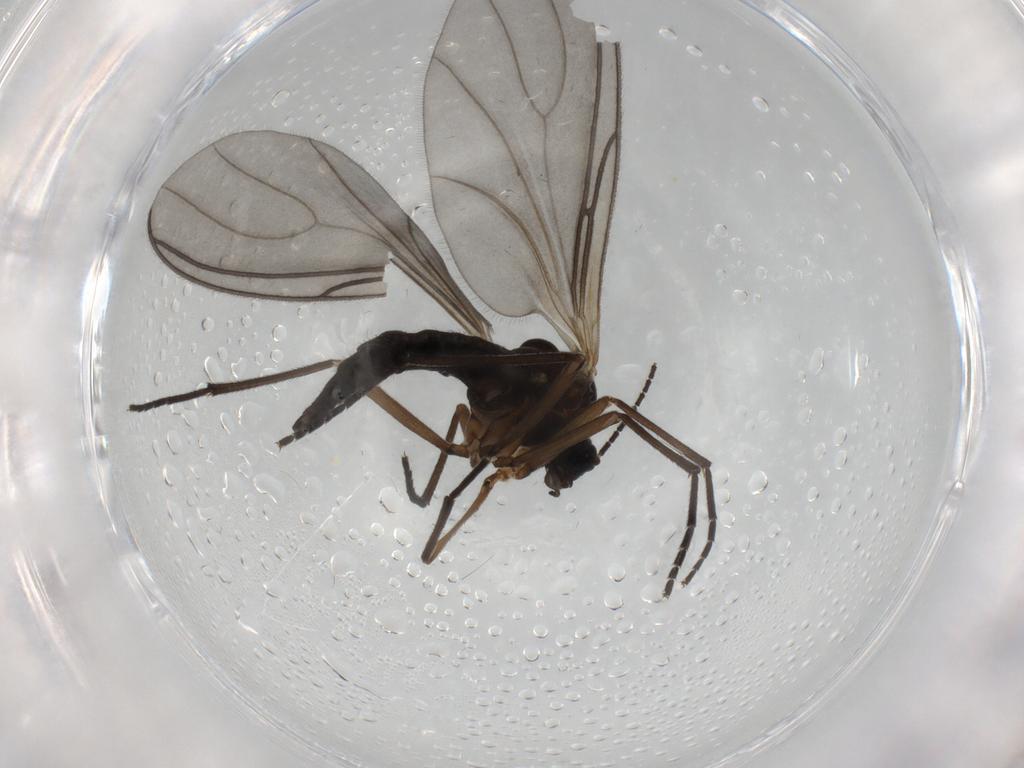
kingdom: Animalia
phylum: Arthropoda
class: Insecta
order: Diptera
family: Sciaridae
